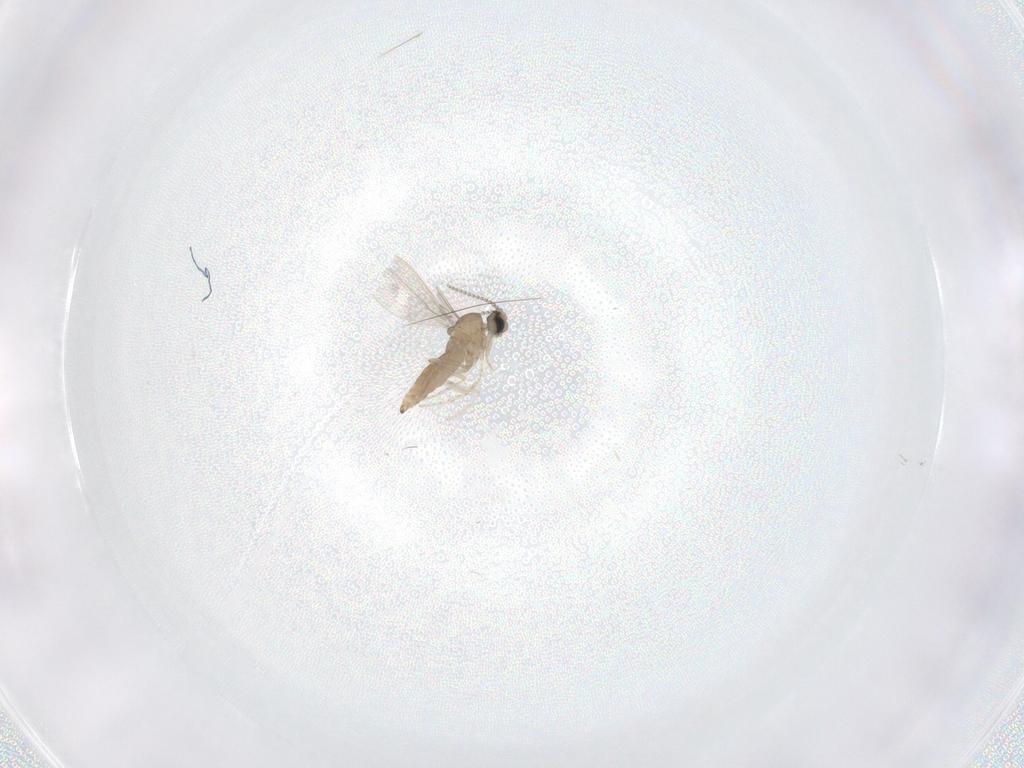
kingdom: Animalia
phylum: Arthropoda
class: Insecta
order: Diptera
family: Cecidomyiidae
